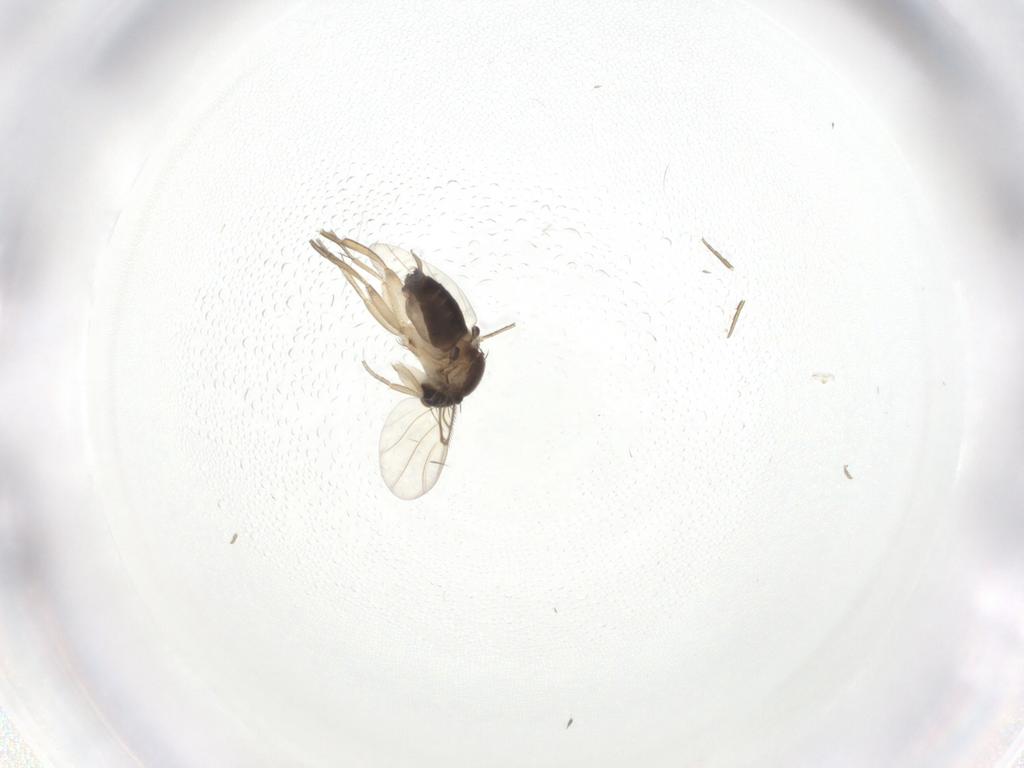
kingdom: Animalia
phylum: Arthropoda
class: Insecta
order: Diptera
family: Phoridae
